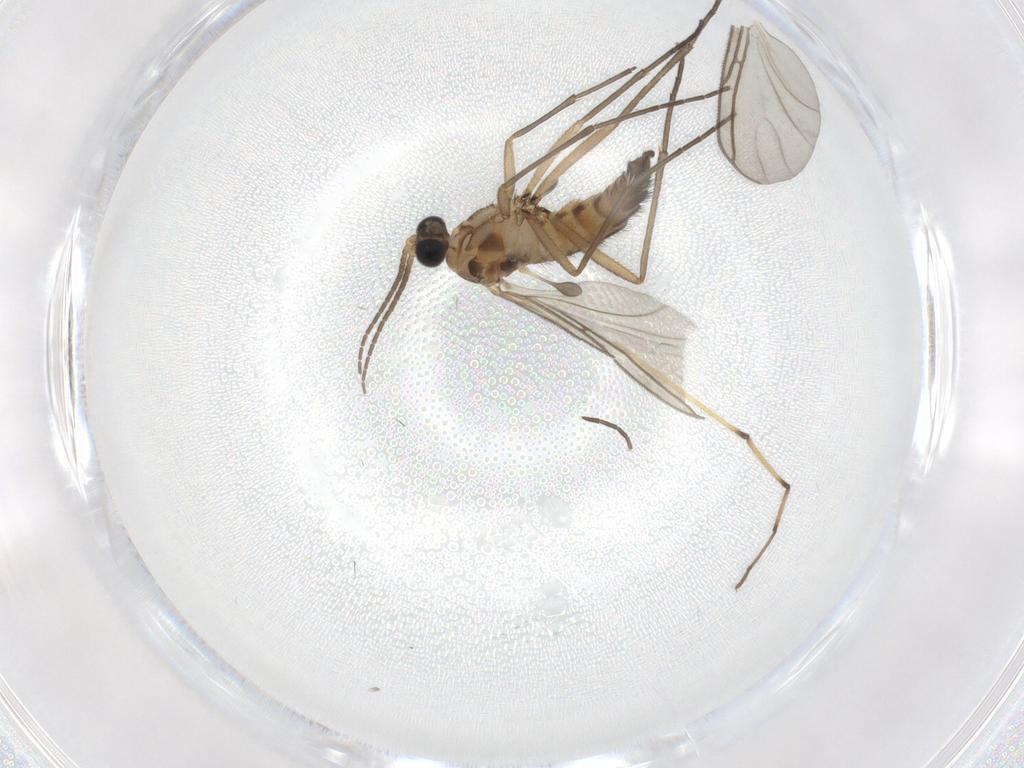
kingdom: Animalia
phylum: Arthropoda
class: Insecta
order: Diptera
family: Sciaridae
